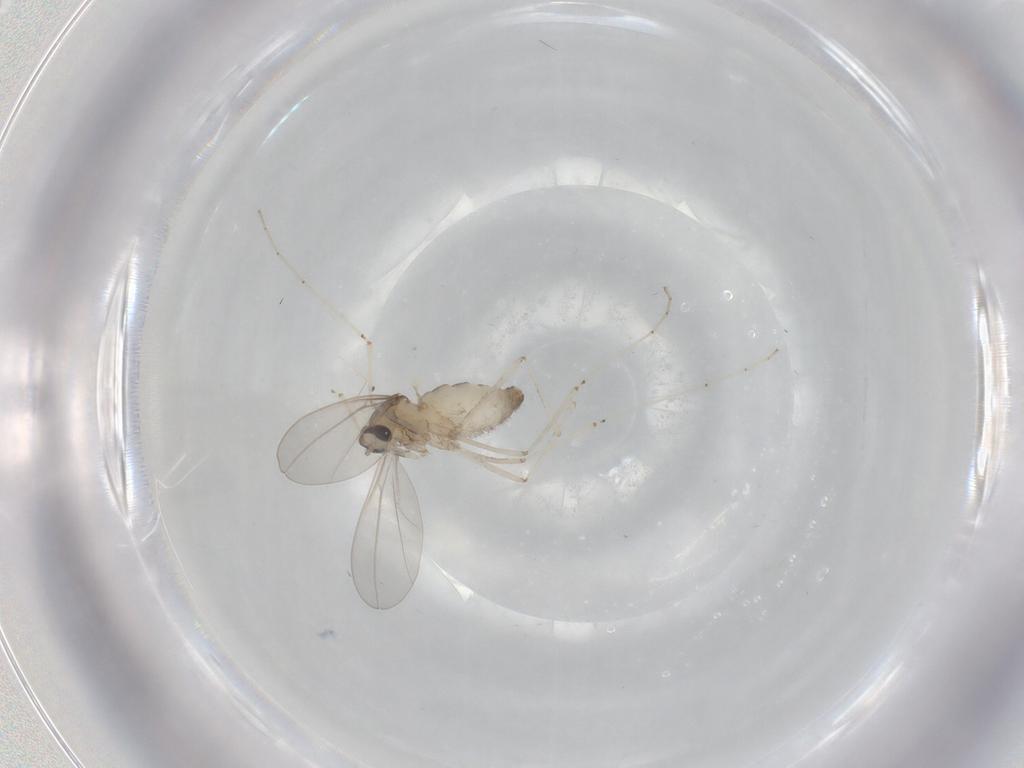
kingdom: Animalia
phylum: Arthropoda
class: Insecta
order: Diptera
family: Cecidomyiidae
